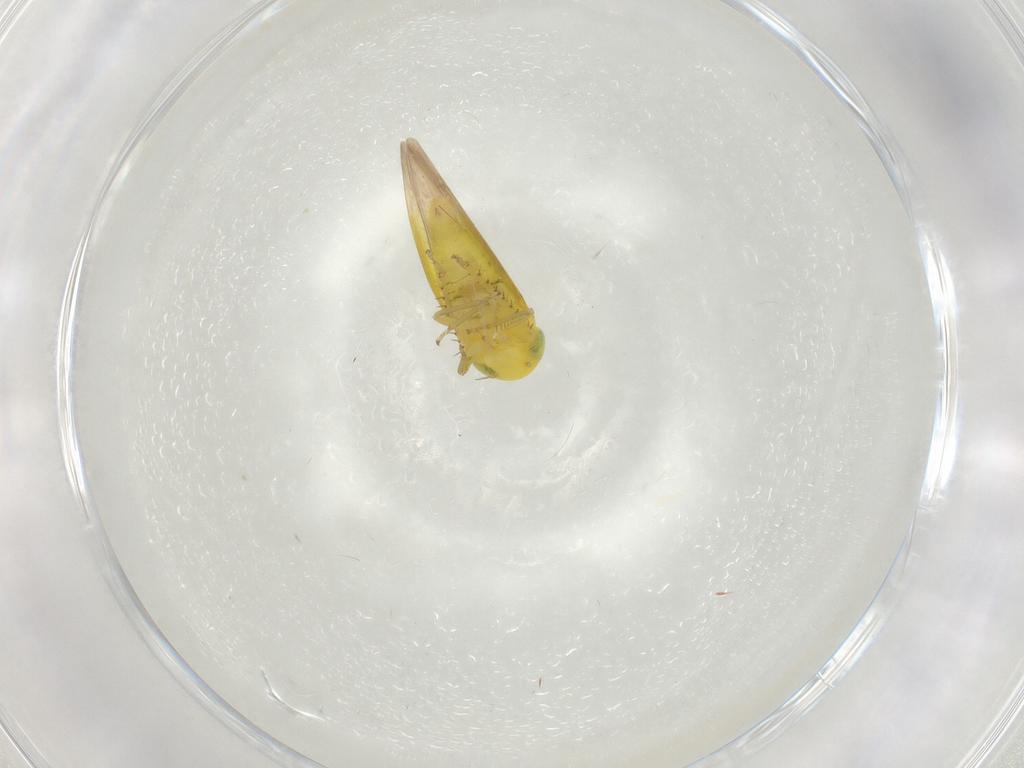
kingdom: Animalia
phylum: Arthropoda
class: Insecta
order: Hemiptera
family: Cicadellidae
